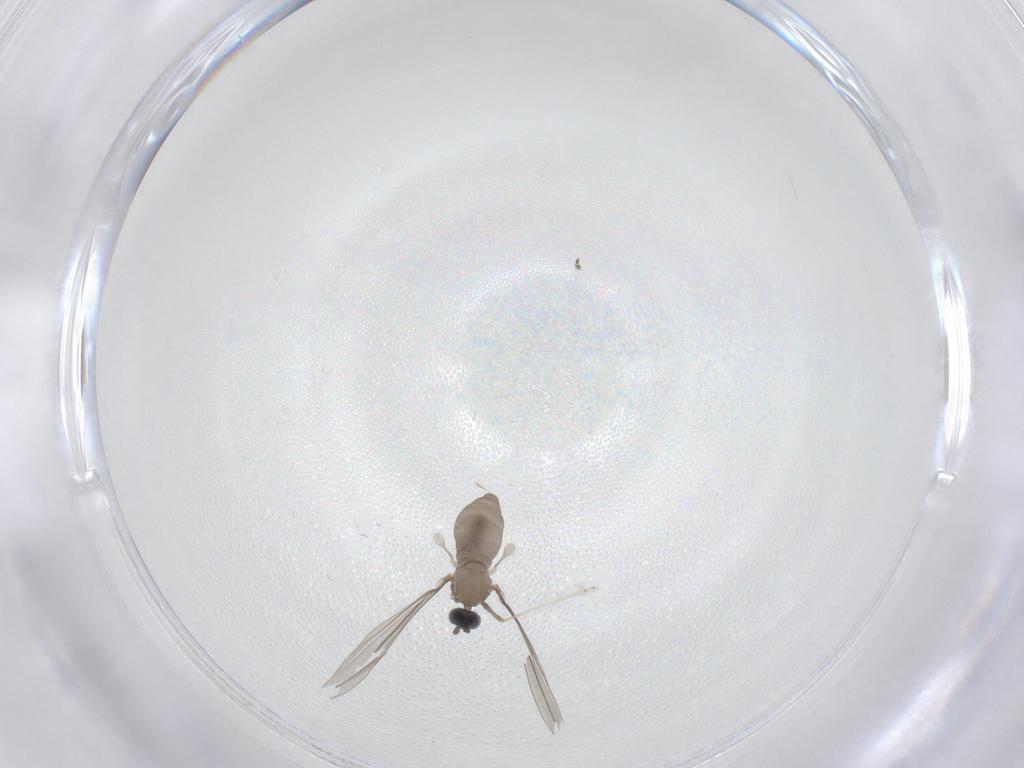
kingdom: Animalia
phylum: Arthropoda
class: Insecta
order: Diptera
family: Cecidomyiidae
